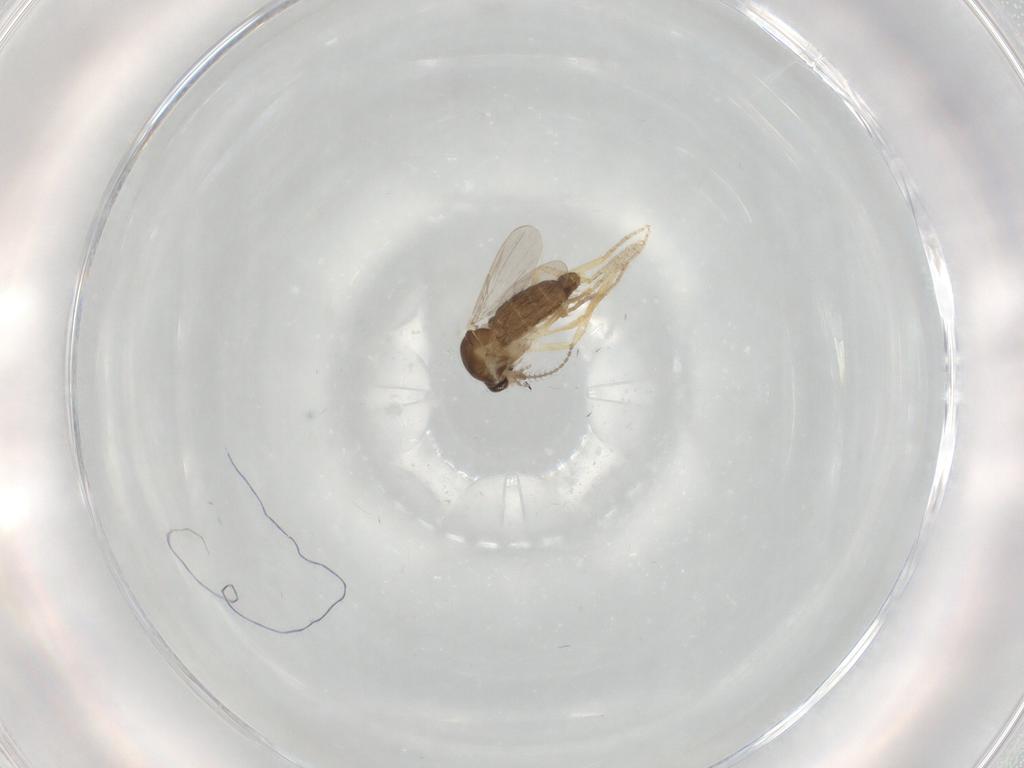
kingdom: Animalia
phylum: Arthropoda
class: Insecta
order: Diptera
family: Ceratopogonidae
